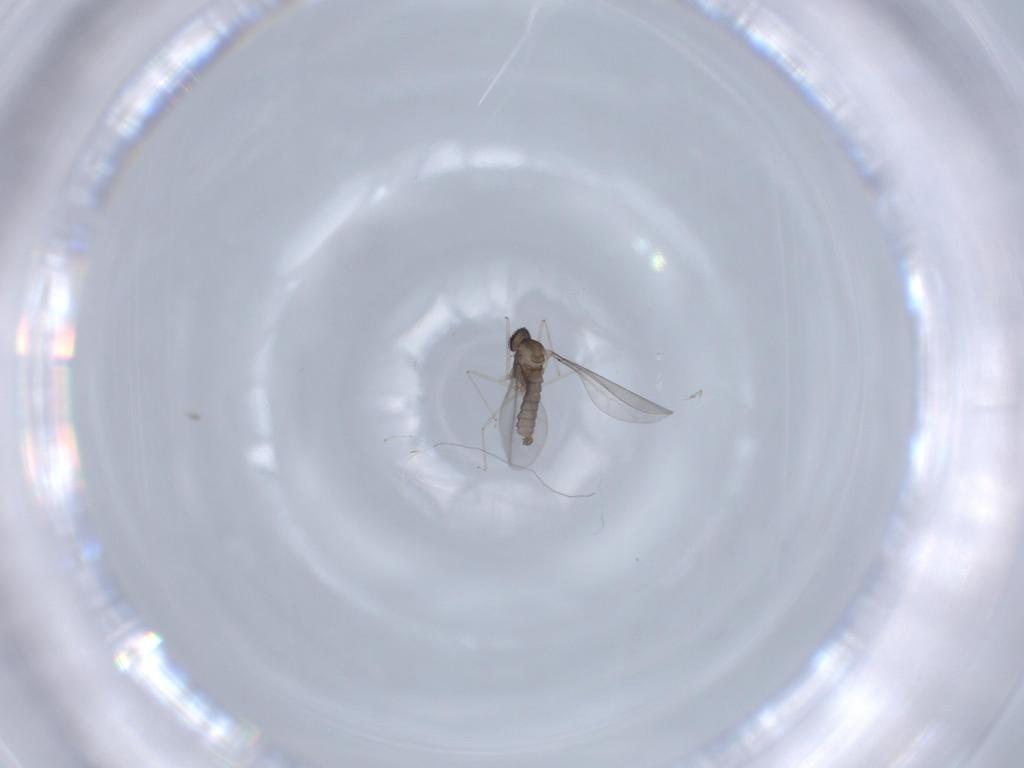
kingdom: Animalia
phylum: Arthropoda
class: Insecta
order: Diptera
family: Cecidomyiidae
